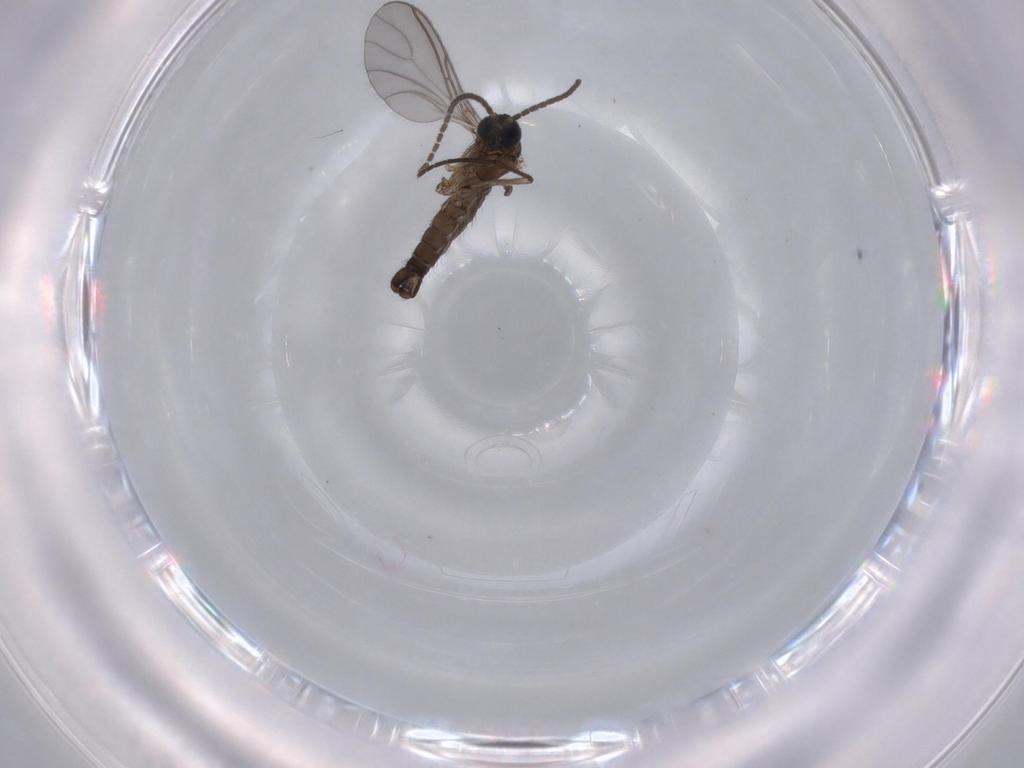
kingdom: Animalia
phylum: Arthropoda
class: Insecta
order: Diptera
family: Sciaridae
